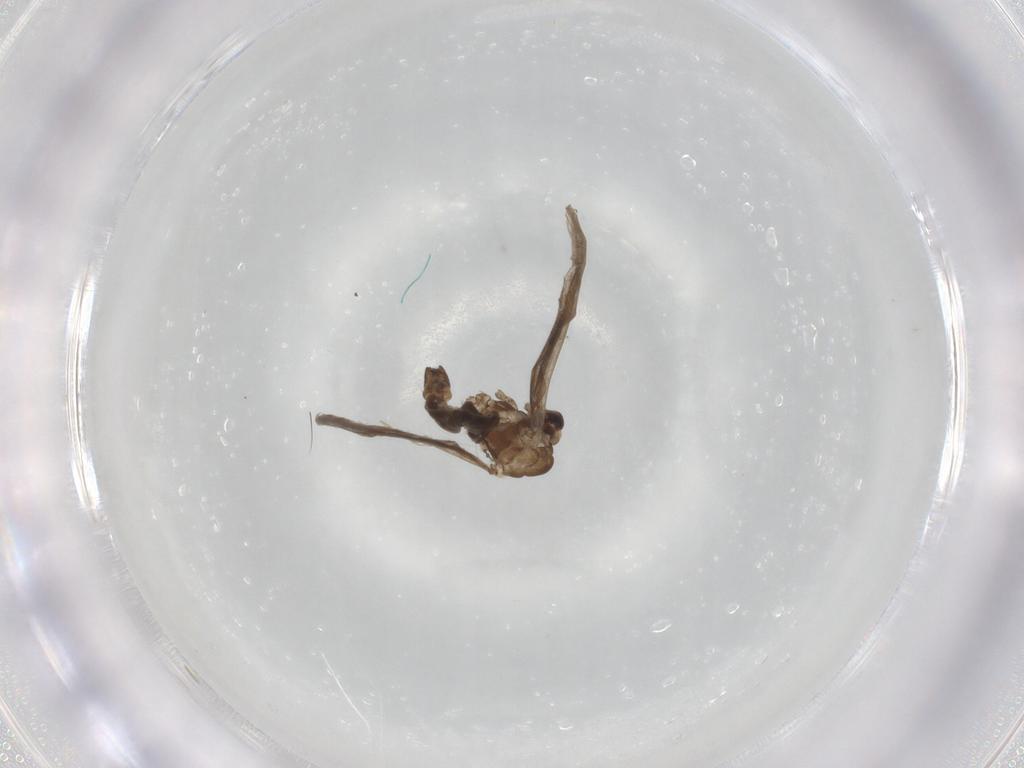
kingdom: Animalia
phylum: Arthropoda
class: Insecta
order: Diptera
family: Limoniidae
